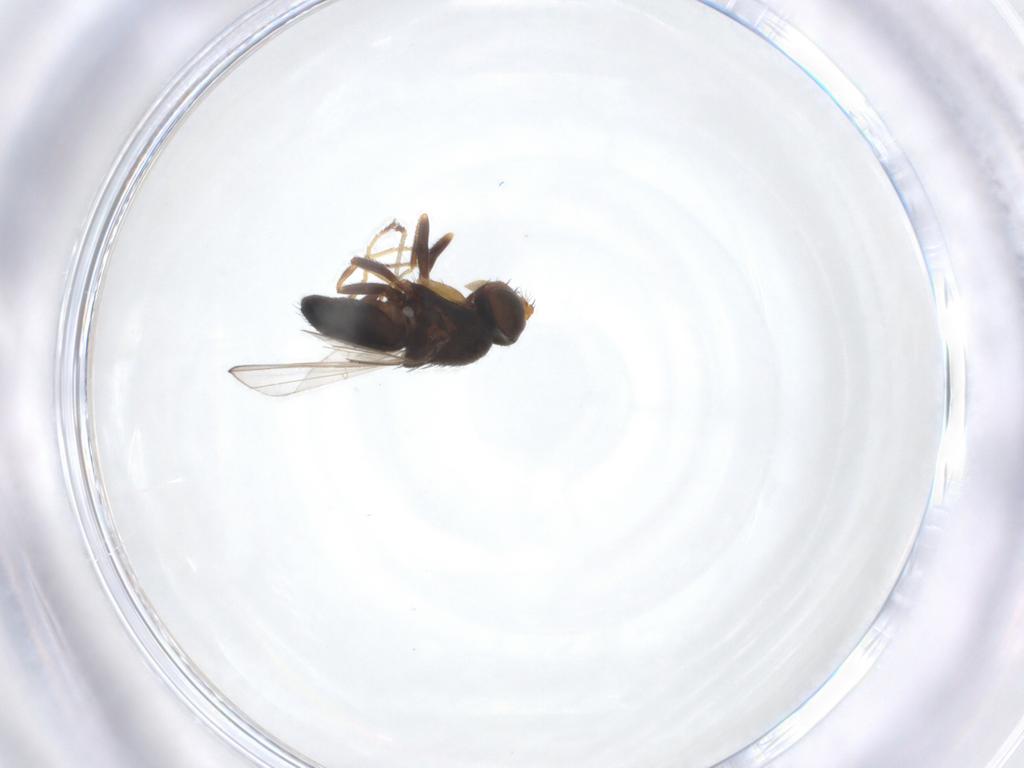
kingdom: Animalia
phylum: Arthropoda
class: Insecta
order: Diptera
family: Ephydridae
